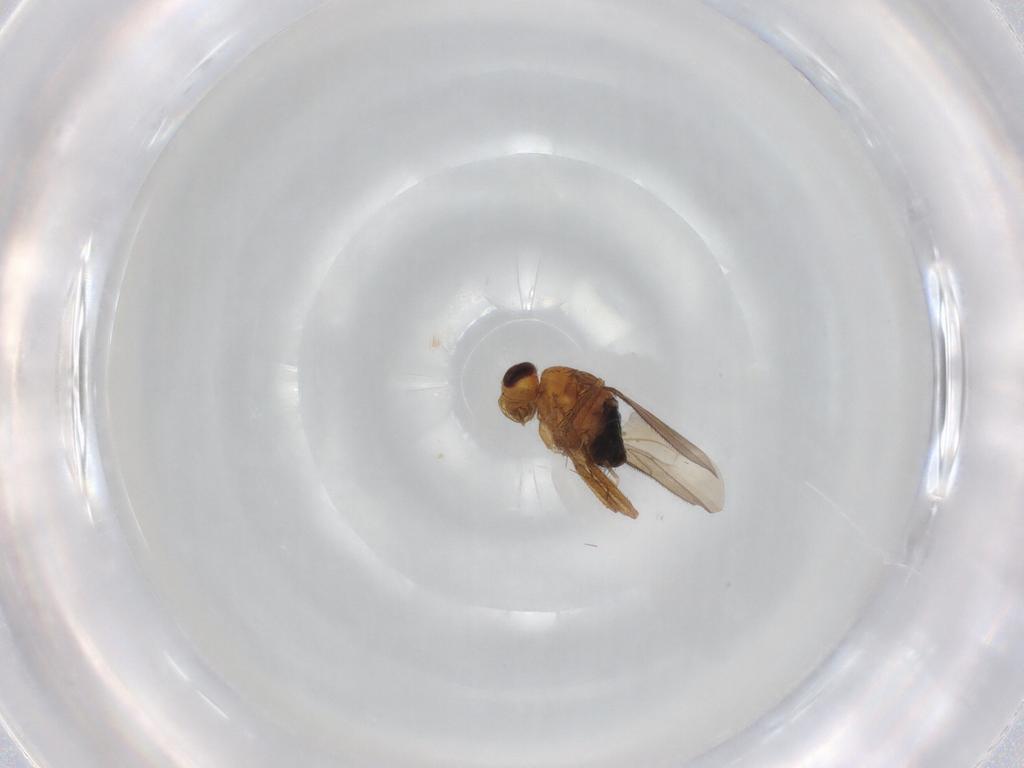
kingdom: Animalia
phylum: Arthropoda
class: Insecta
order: Diptera
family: Sphaeroceridae
